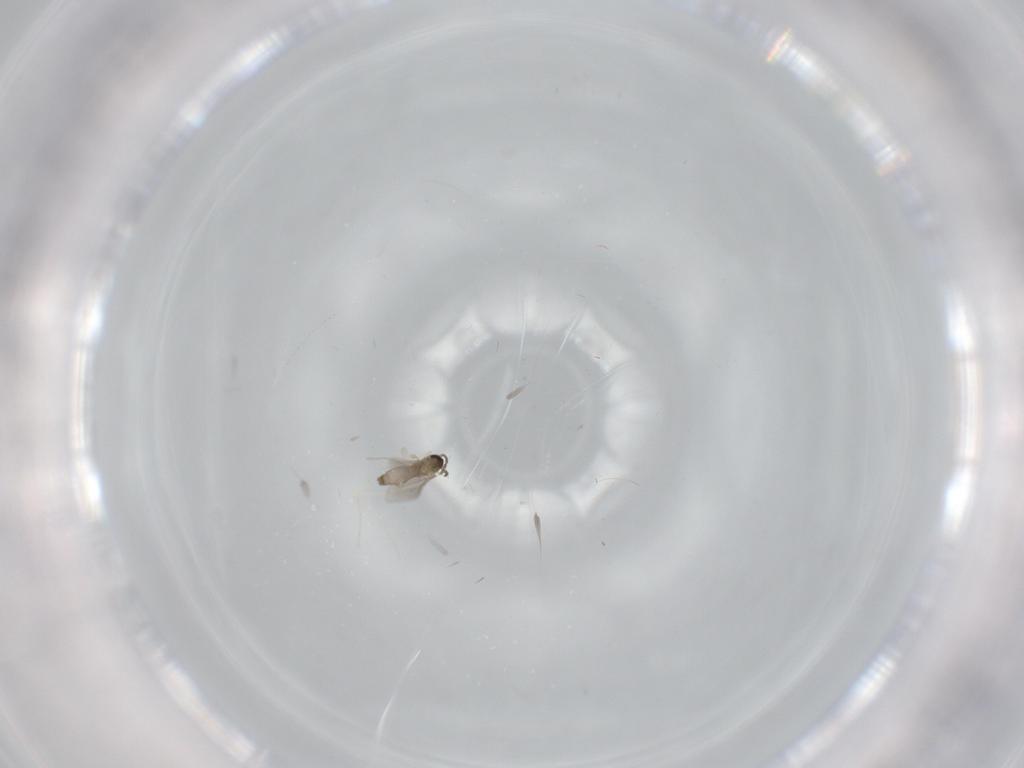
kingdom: Animalia
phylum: Arthropoda
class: Insecta
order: Diptera
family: Ceratopogonidae
